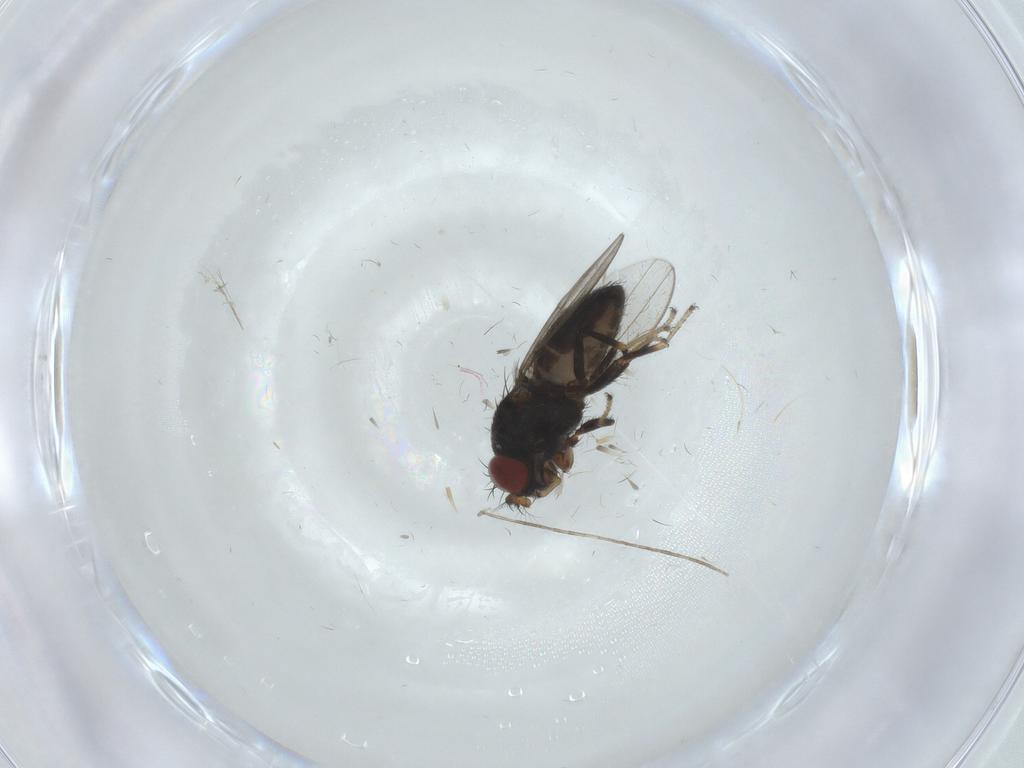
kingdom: Animalia
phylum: Arthropoda
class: Insecta
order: Diptera
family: Ephydridae
